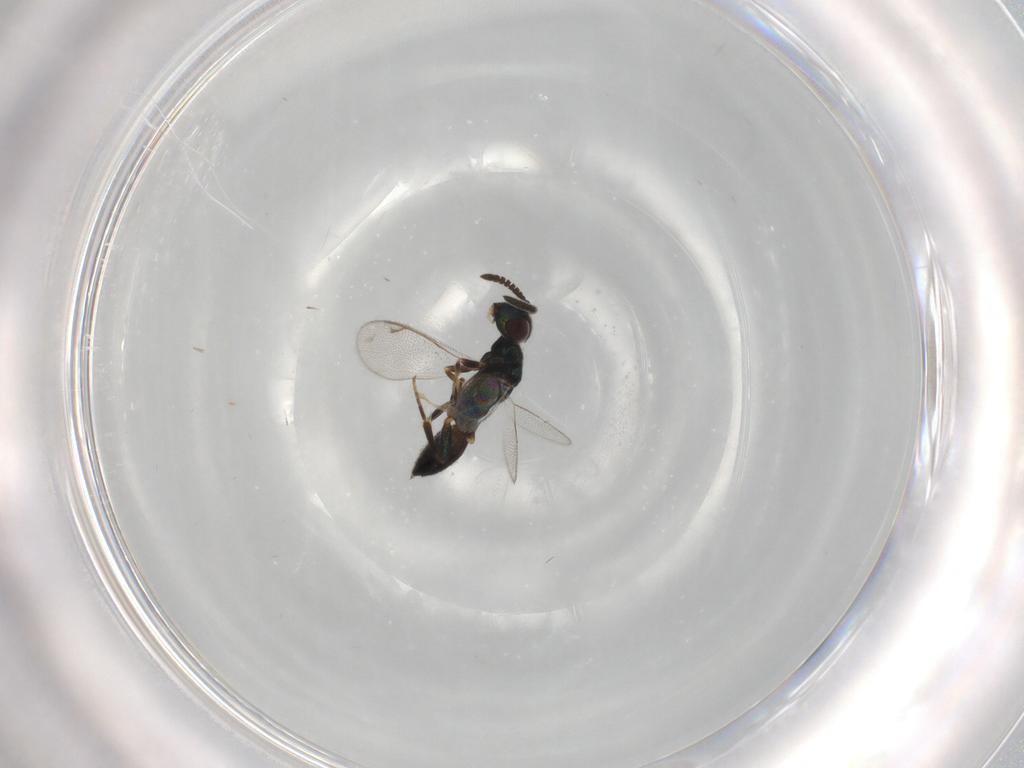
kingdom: Animalia
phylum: Arthropoda
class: Insecta
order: Hymenoptera
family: Cleonyminae
